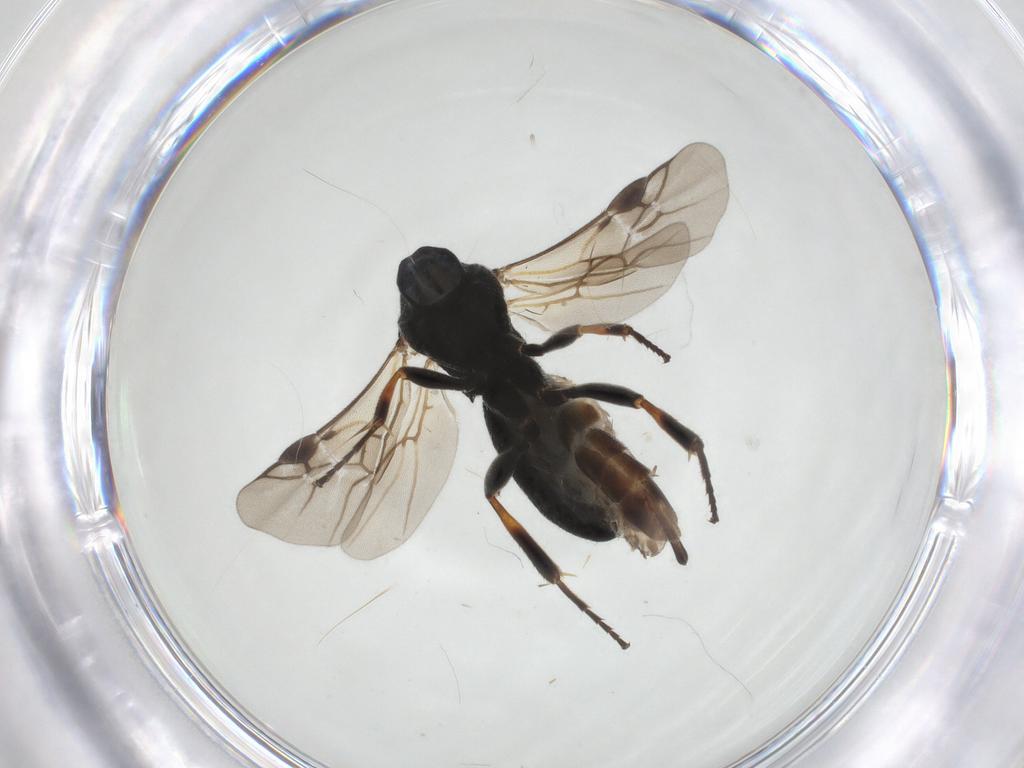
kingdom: Animalia
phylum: Arthropoda
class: Insecta
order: Hymenoptera
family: Braconidae
